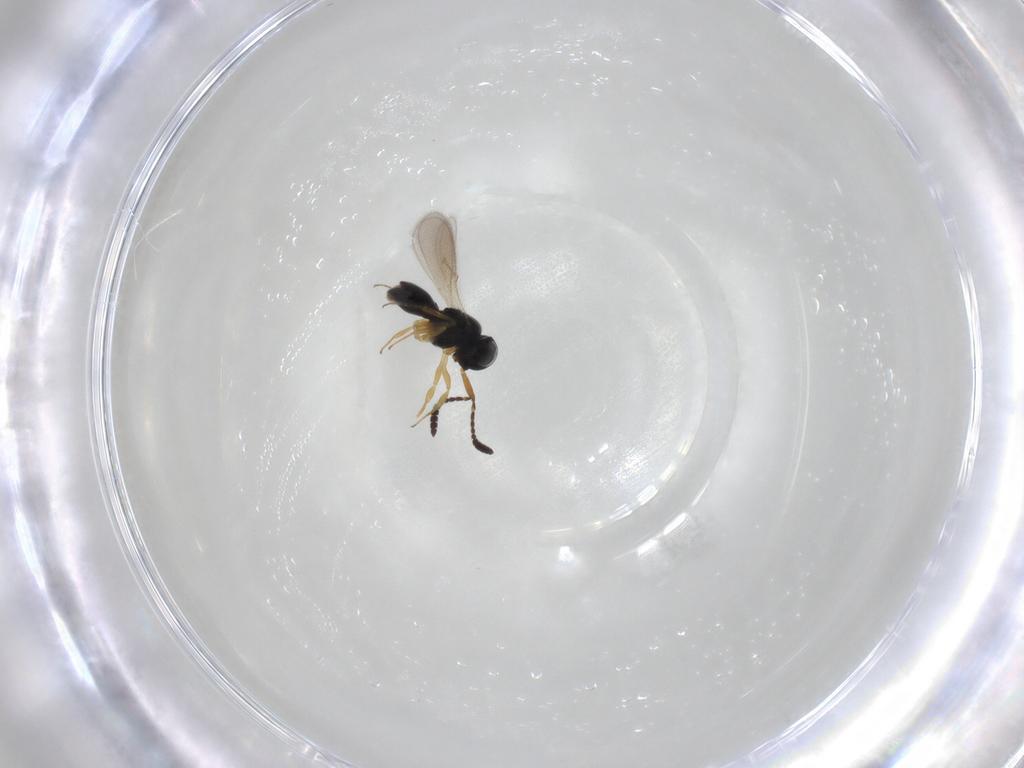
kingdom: Animalia
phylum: Arthropoda
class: Insecta
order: Hymenoptera
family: Scelionidae
